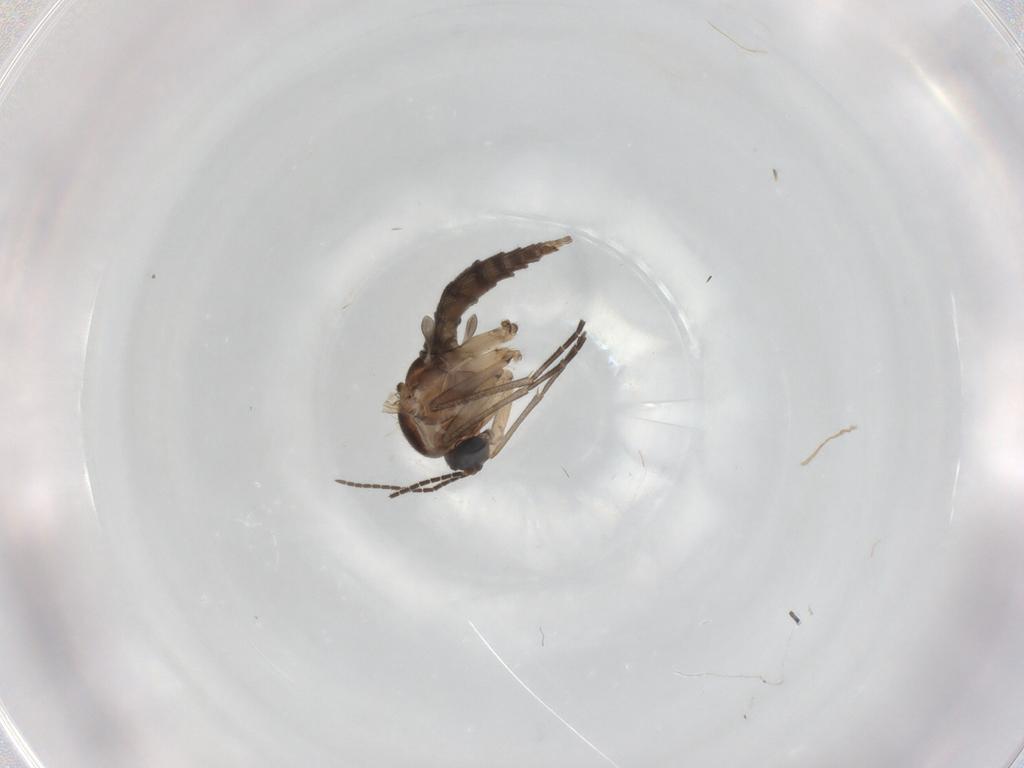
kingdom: Animalia
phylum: Arthropoda
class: Insecta
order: Diptera
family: Sciaridae
